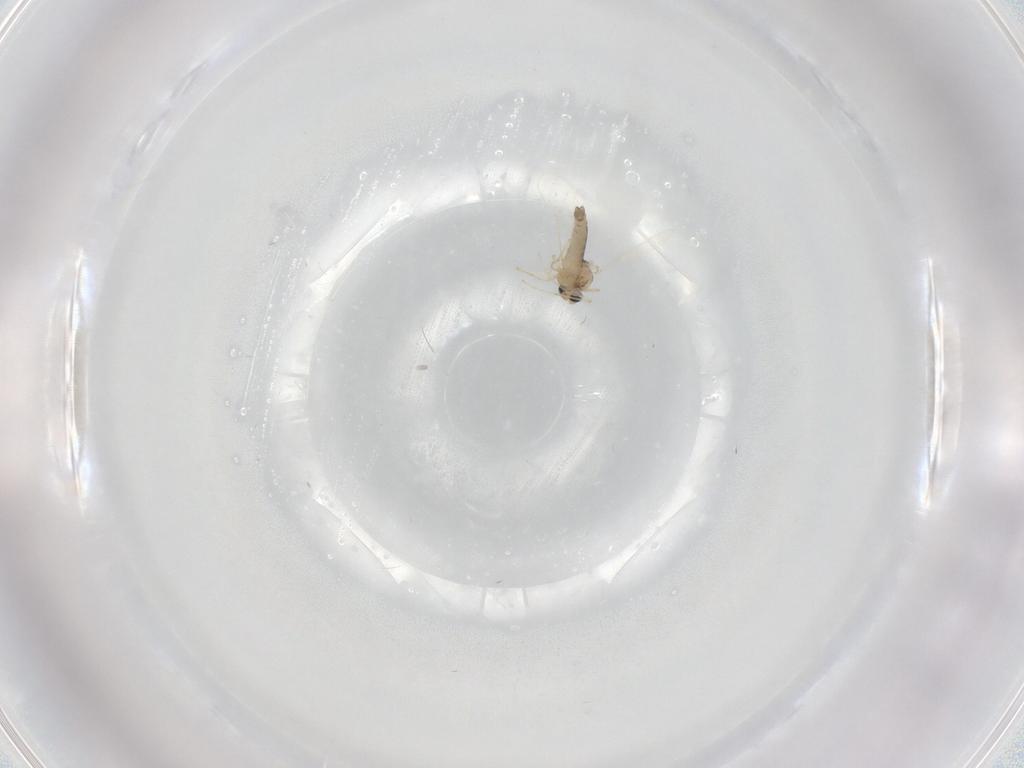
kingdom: Animalia
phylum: Arthropoda
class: Insecta
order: Diptera
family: Chironomidae
